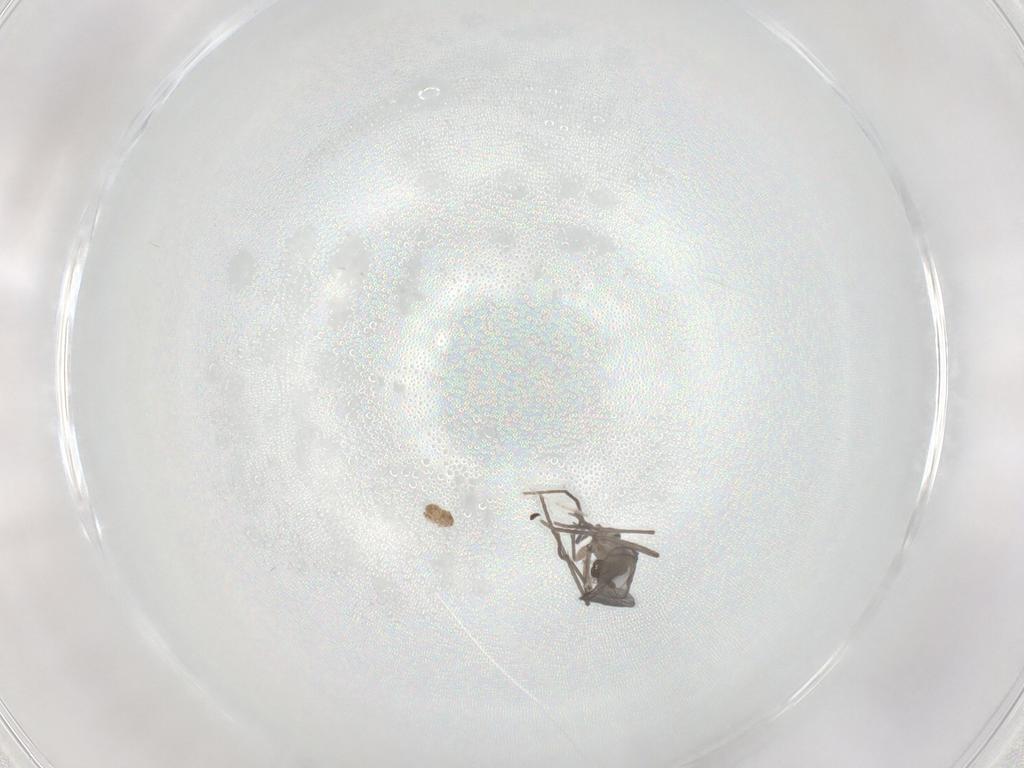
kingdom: Animalia
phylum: Arthropoda
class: Insecta
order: Diptera
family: Sciaridae
